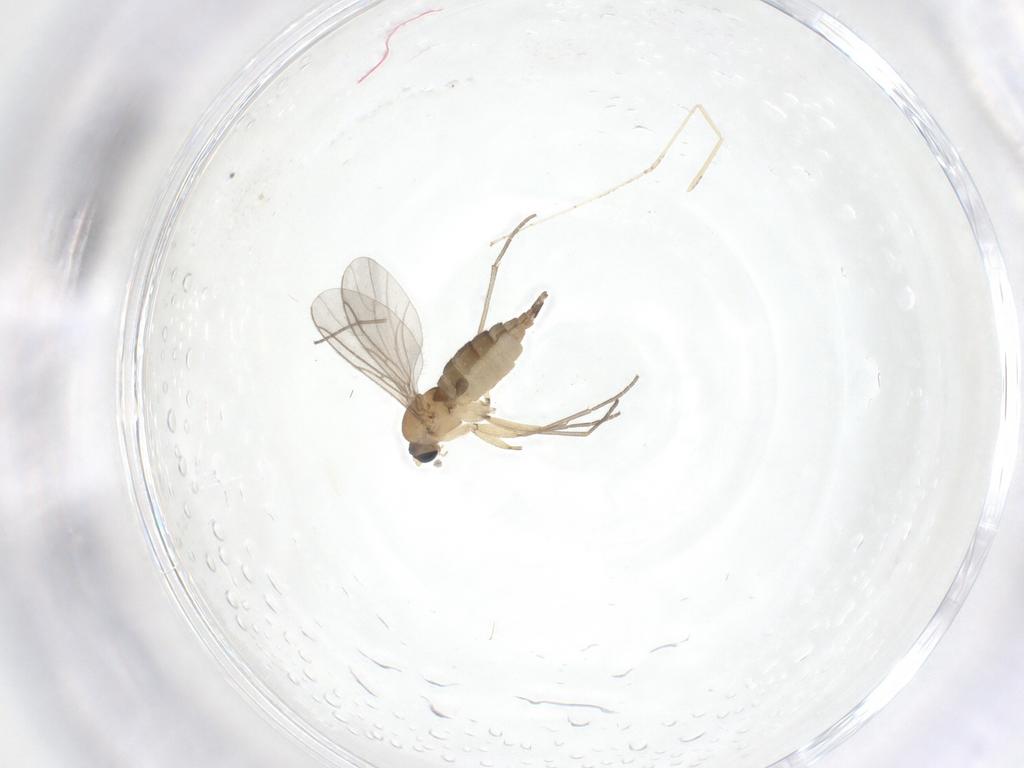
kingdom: Animalia
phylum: Arthropoda
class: Insecta
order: Diptera
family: Sciaridae
